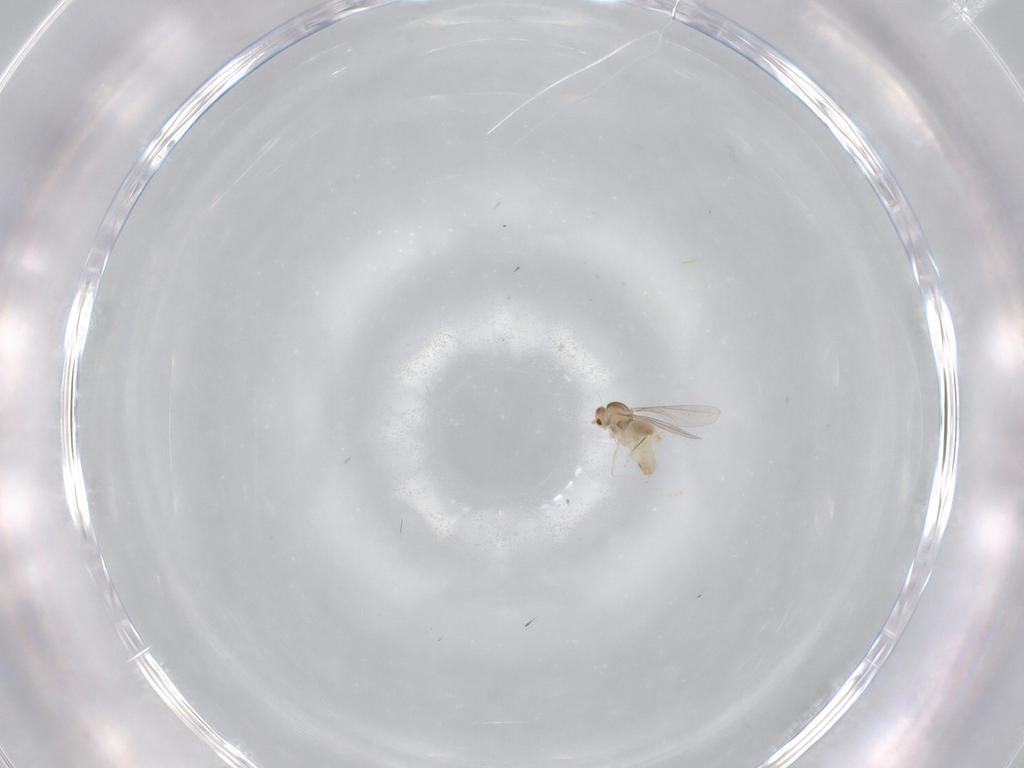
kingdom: Animalia
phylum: Arthropoda
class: Insecta
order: Diptera
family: Cecidomyiidae
